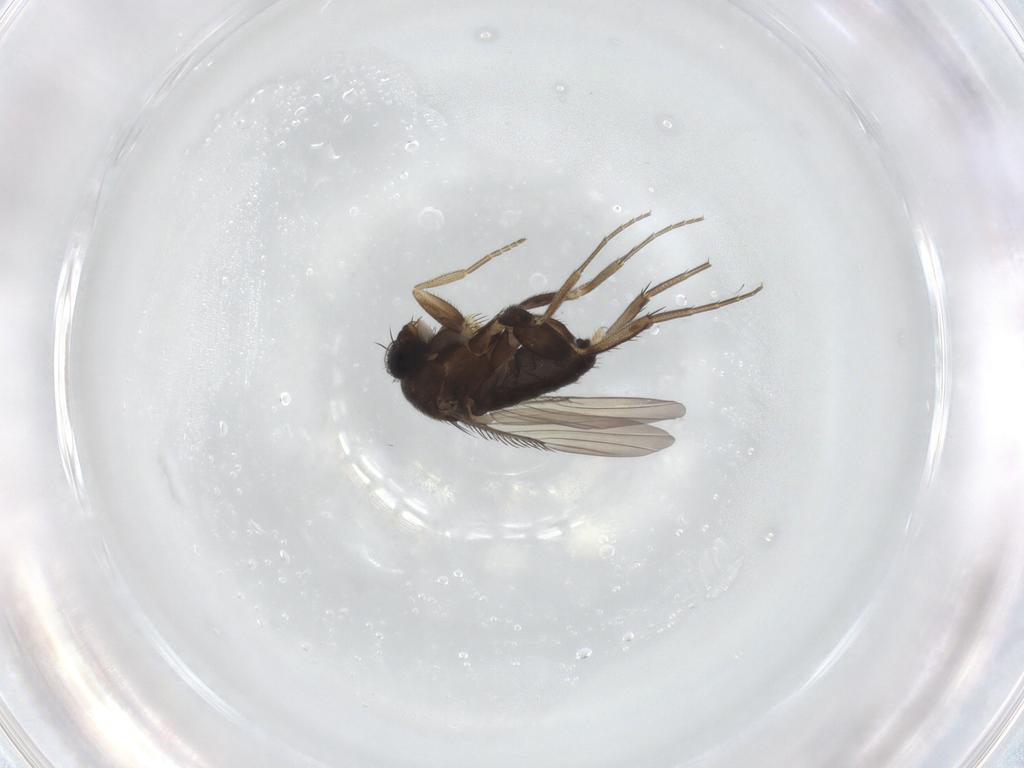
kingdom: Animalia
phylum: Arthropoda
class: Insecta
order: Diptera
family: Phoridae
